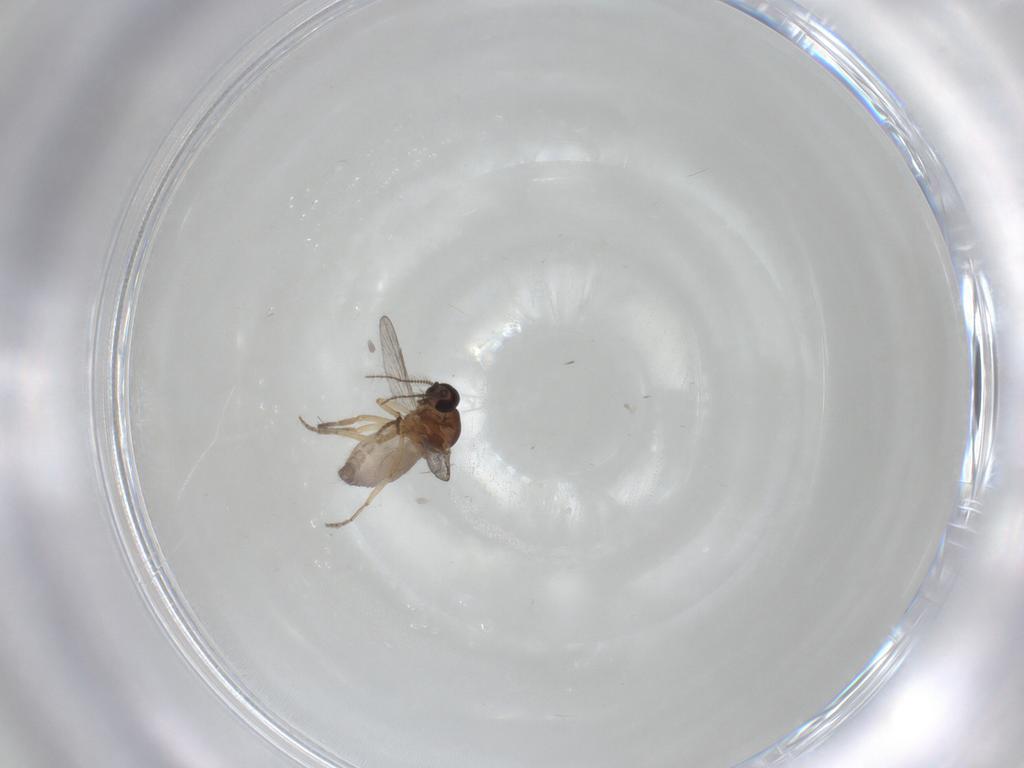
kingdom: Animalia
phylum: Arthropoda
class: Insecta
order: Diptera
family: Ceratopogonidae
